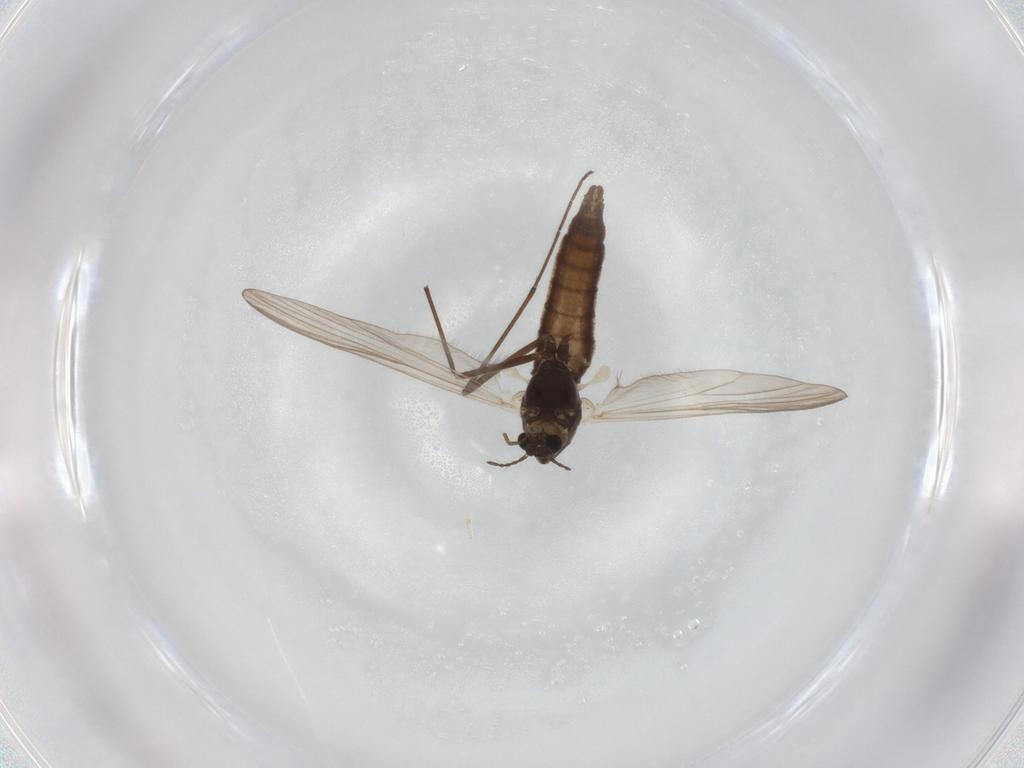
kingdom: Animalia
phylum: Arthropoda
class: Insecta
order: Diptera
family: Chironomidae
